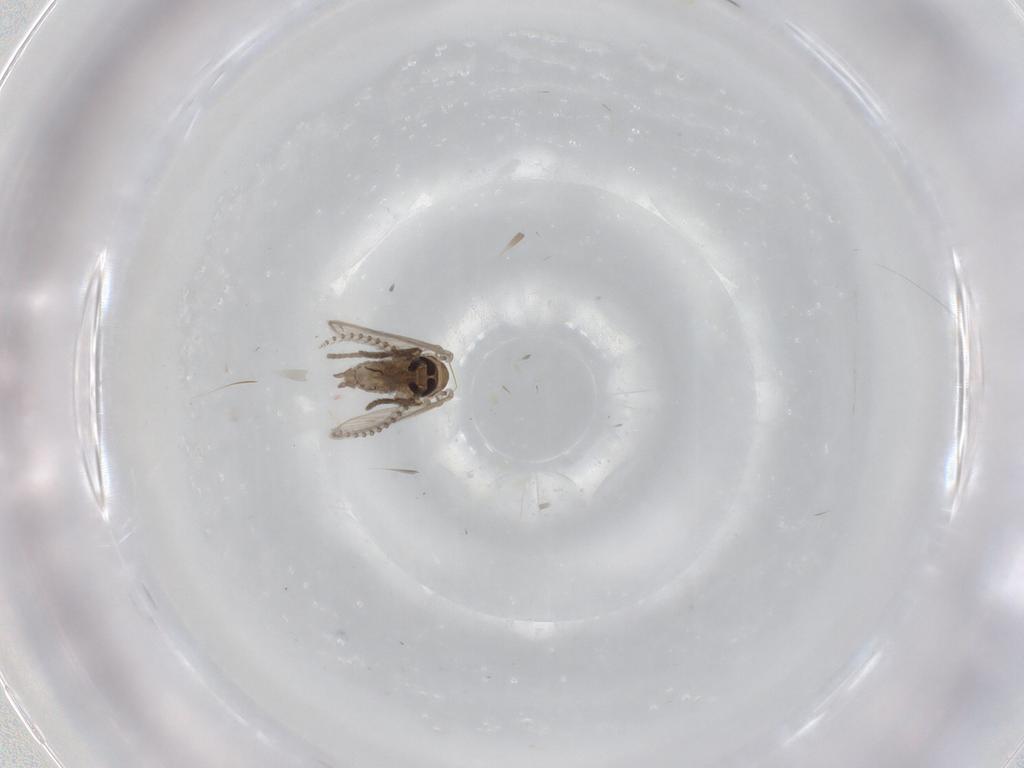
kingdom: Animalia
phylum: Arthropoda
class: Insecta
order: Diptera
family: Psychodidae
